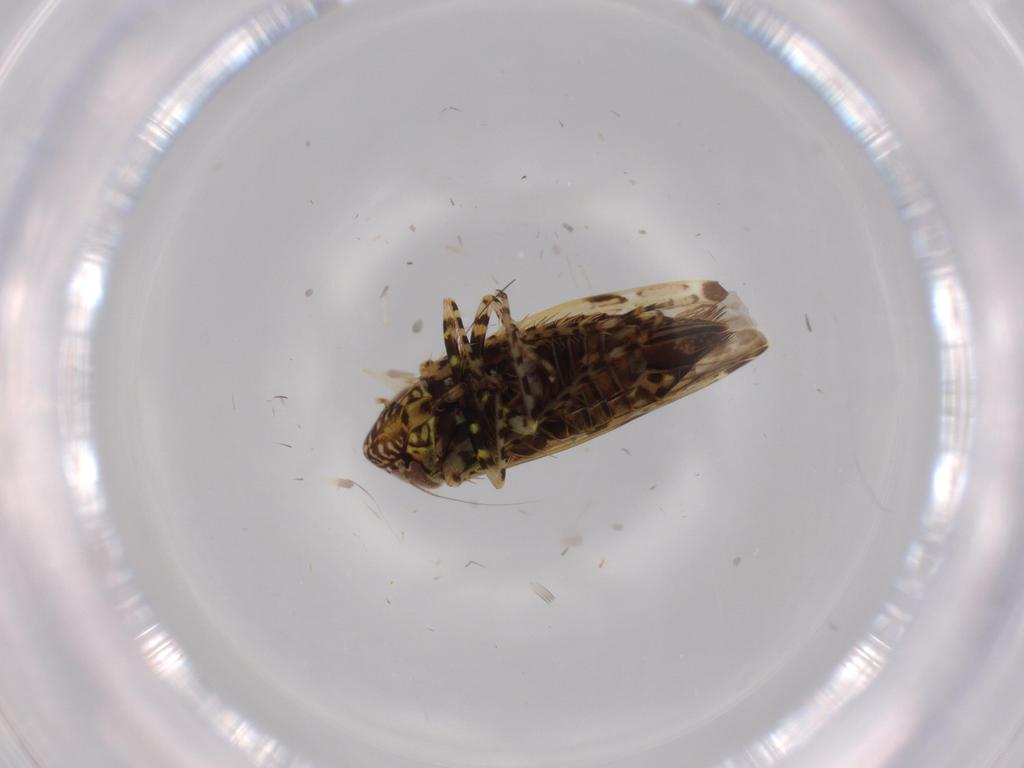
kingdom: Animalia
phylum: Arthropoda
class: Insecta
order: Hemiptera
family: Cicadellidae
